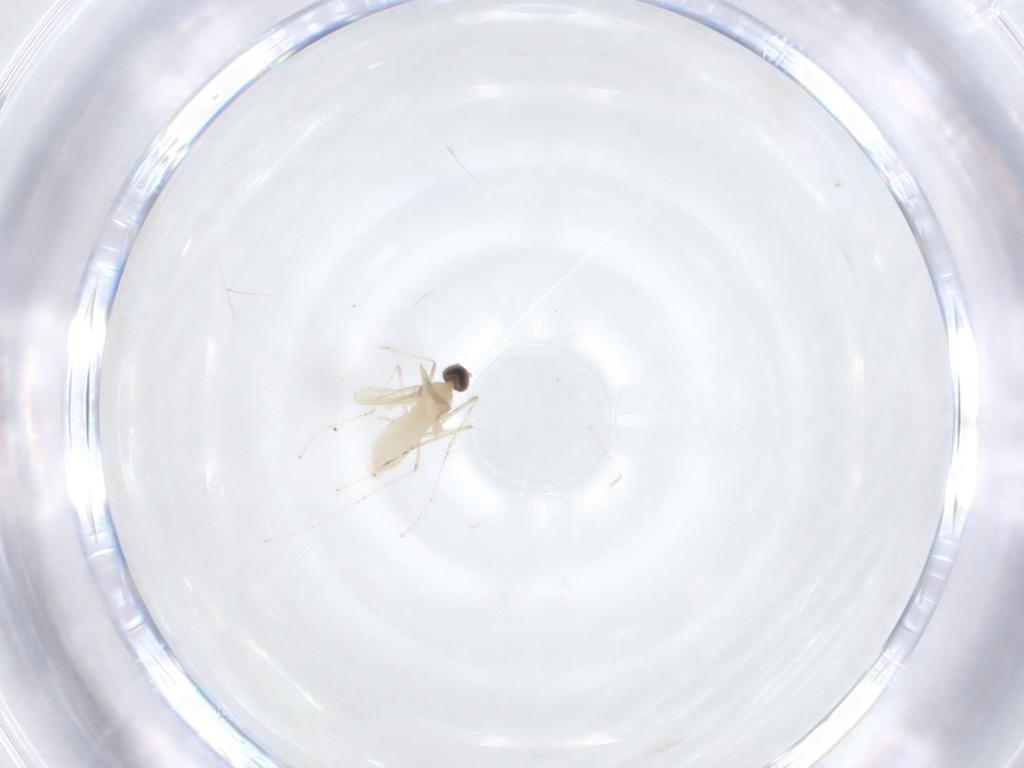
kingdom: Animalia
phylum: Arthropoda
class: Insecta
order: Diptera
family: Cecidomyiidae
